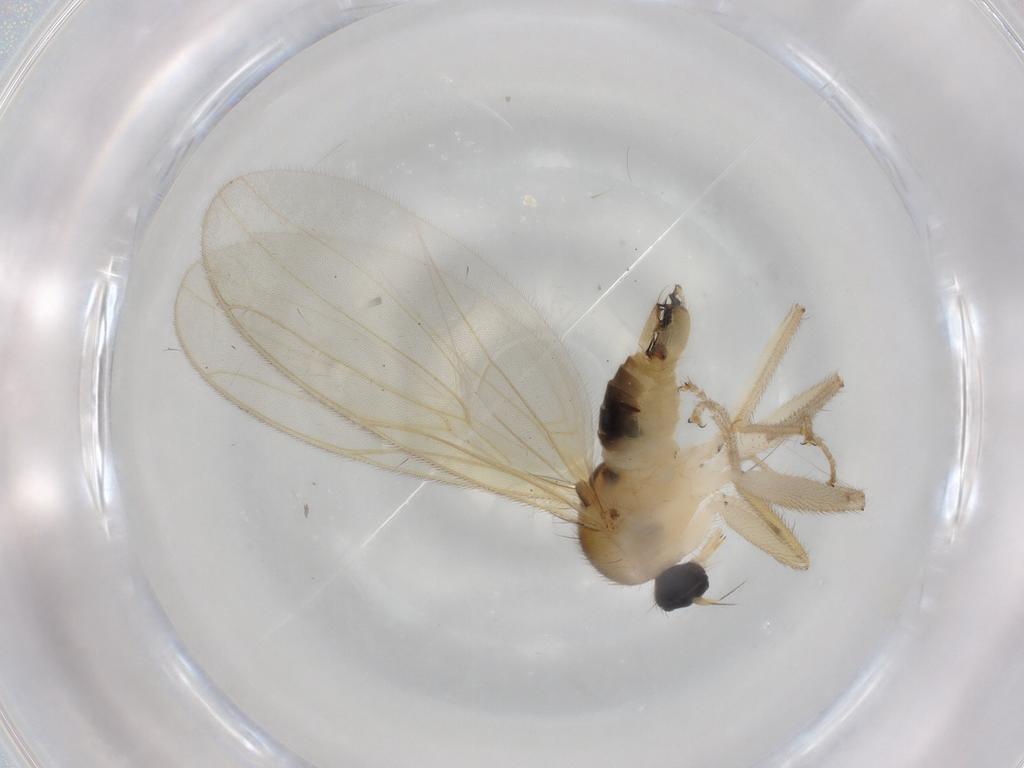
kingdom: Animalia
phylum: Arthropoda
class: Insecta
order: Diptera
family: Hybotidae
